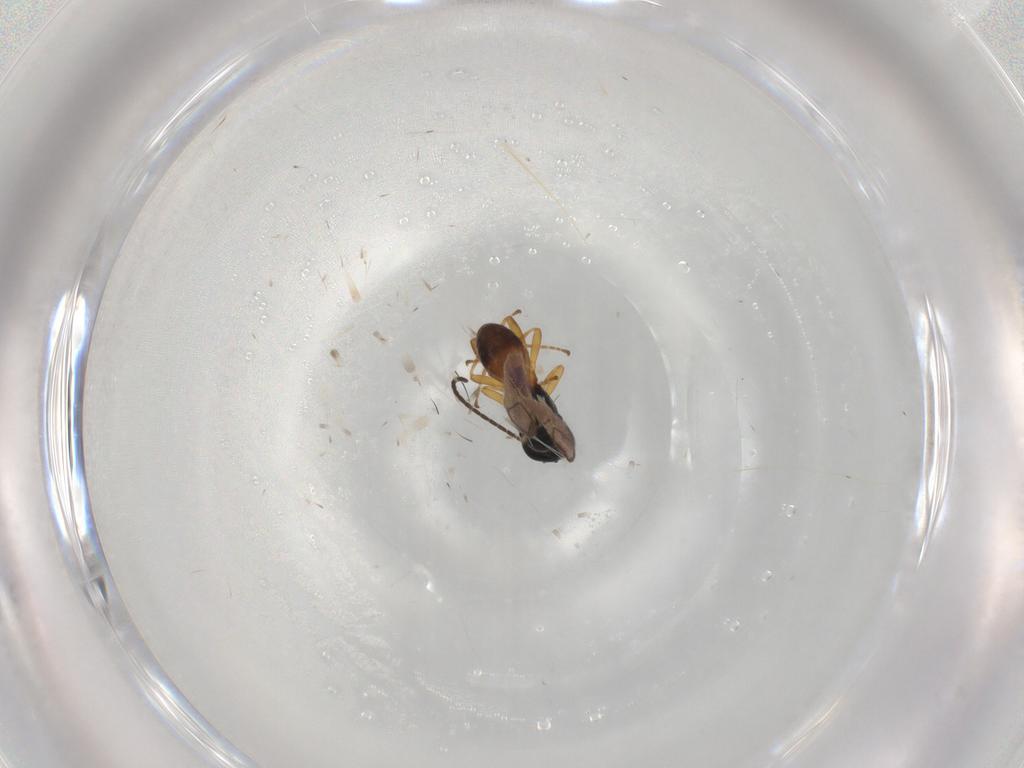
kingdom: Animalia
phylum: Arthropoda
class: Insecta
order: Hymenoptera
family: Braconidae
